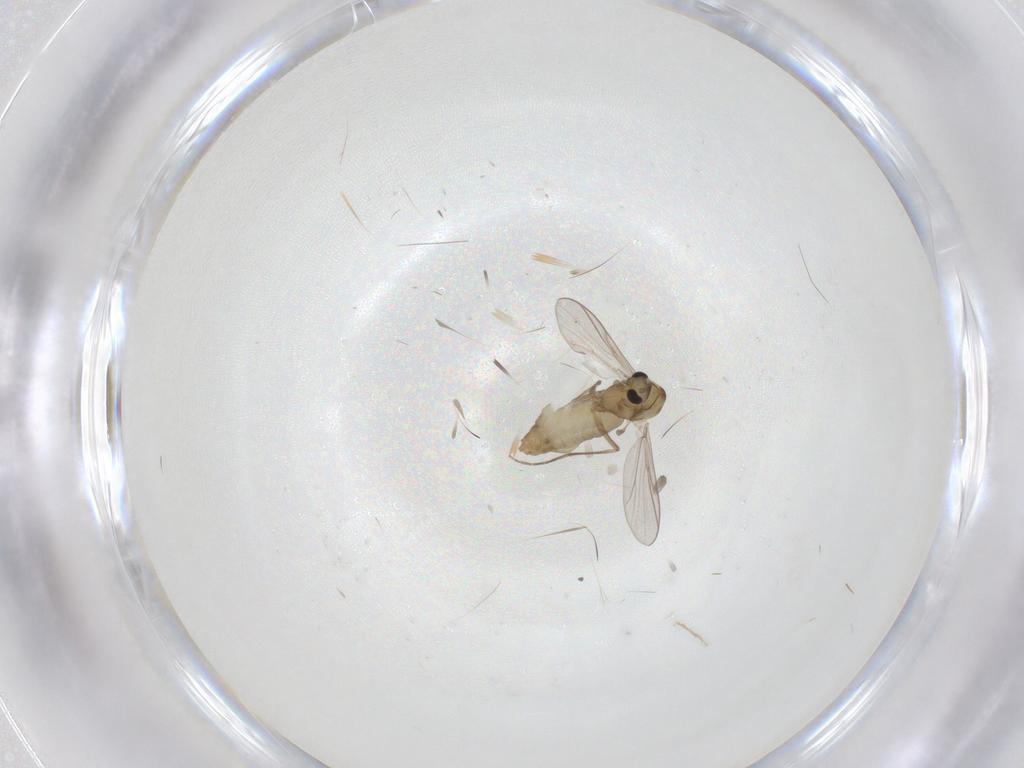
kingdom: Animalia
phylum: Arthropoda
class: Insecta
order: Diptera
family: Chironomidae
